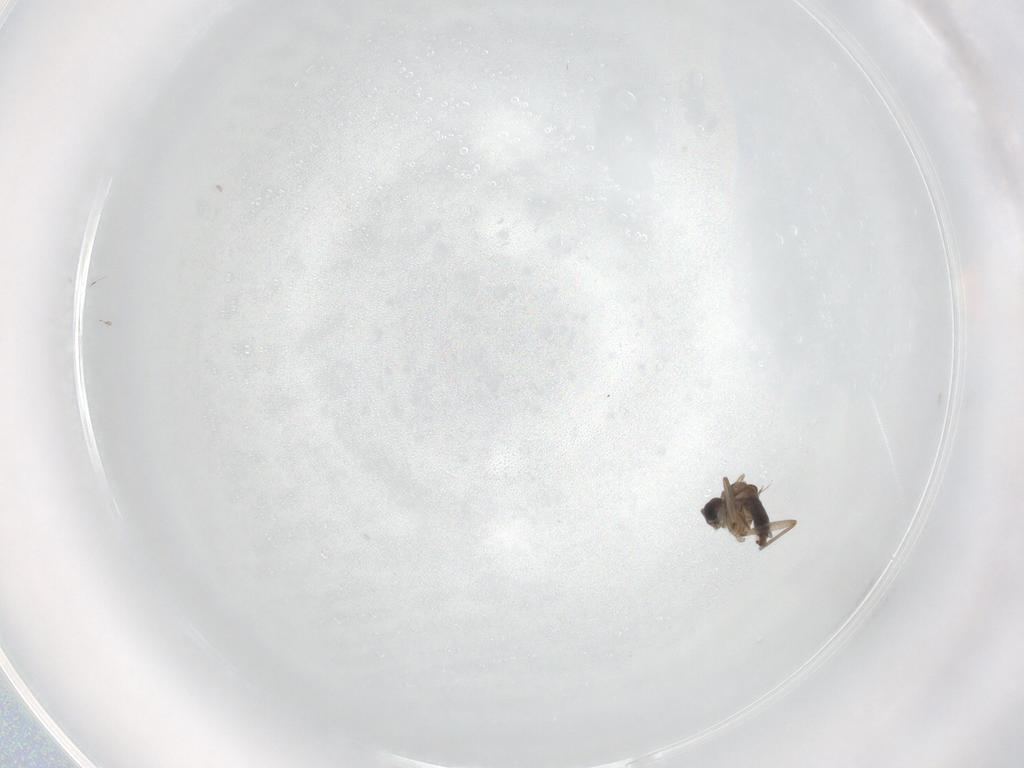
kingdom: Animalia
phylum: Arthropoda
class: Insecta
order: Diptera
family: Sciaridae
